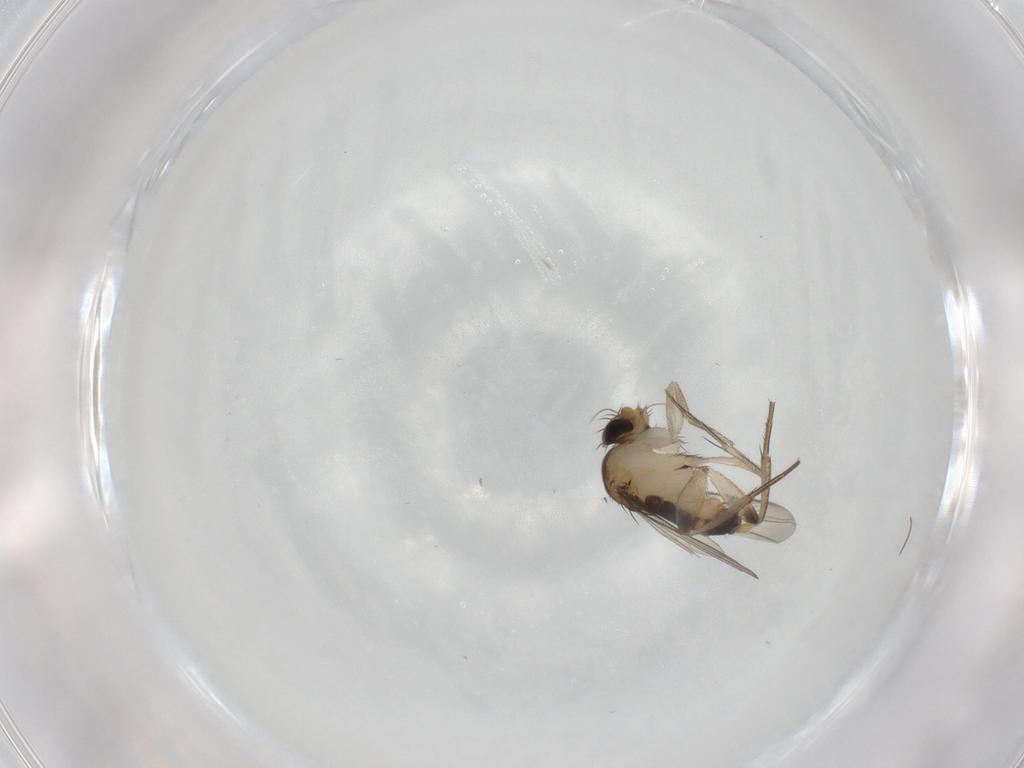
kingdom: Animalia
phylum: Arthropoda
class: Insecta
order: Diptera
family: Phoridae
